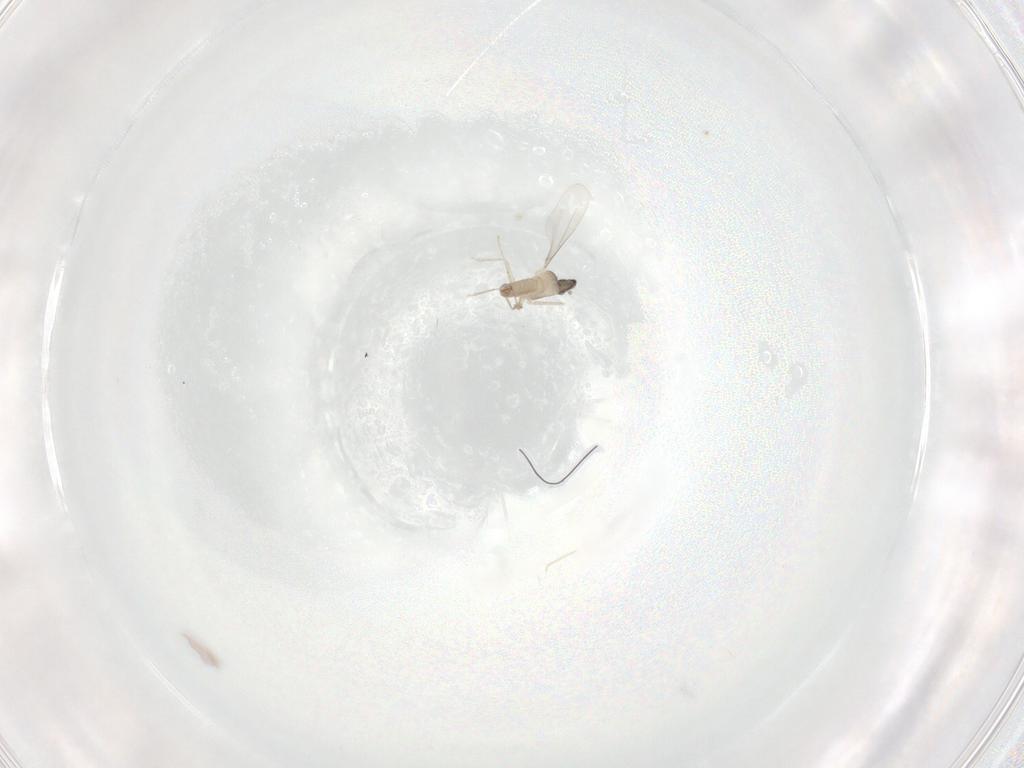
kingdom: Animalia
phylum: Arthropoda
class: Insecta
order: Diptera
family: Cecidomyiidae
